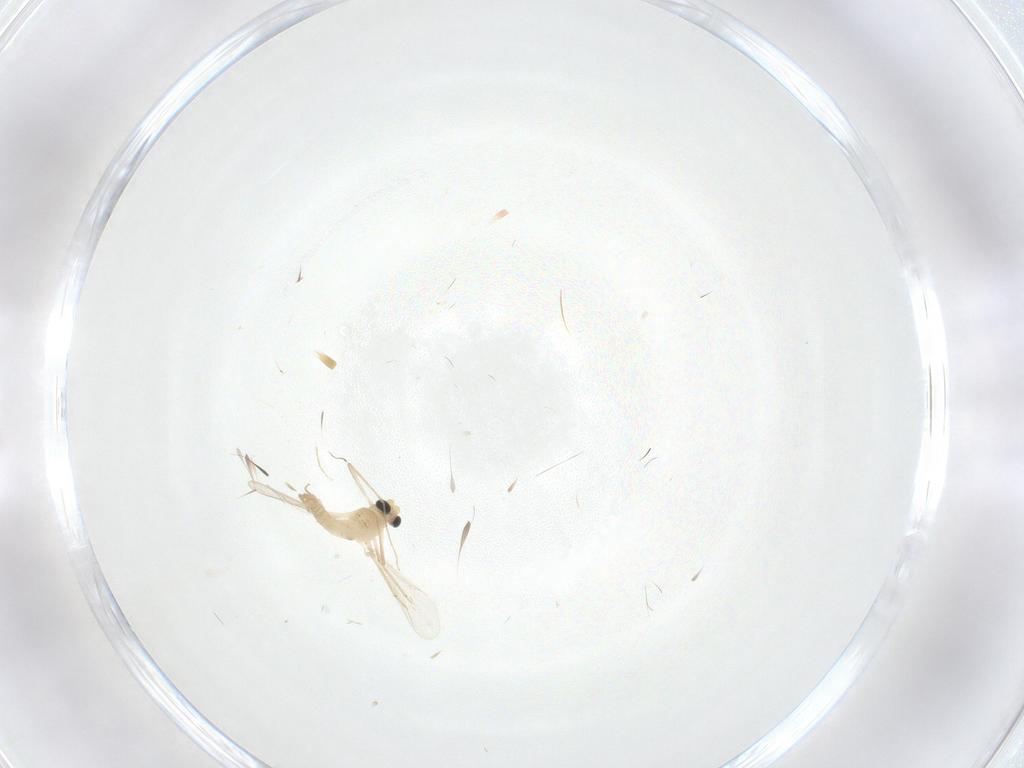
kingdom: Animalia
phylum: Arthropoda
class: Insecta
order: Diptera
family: Chironomidae
